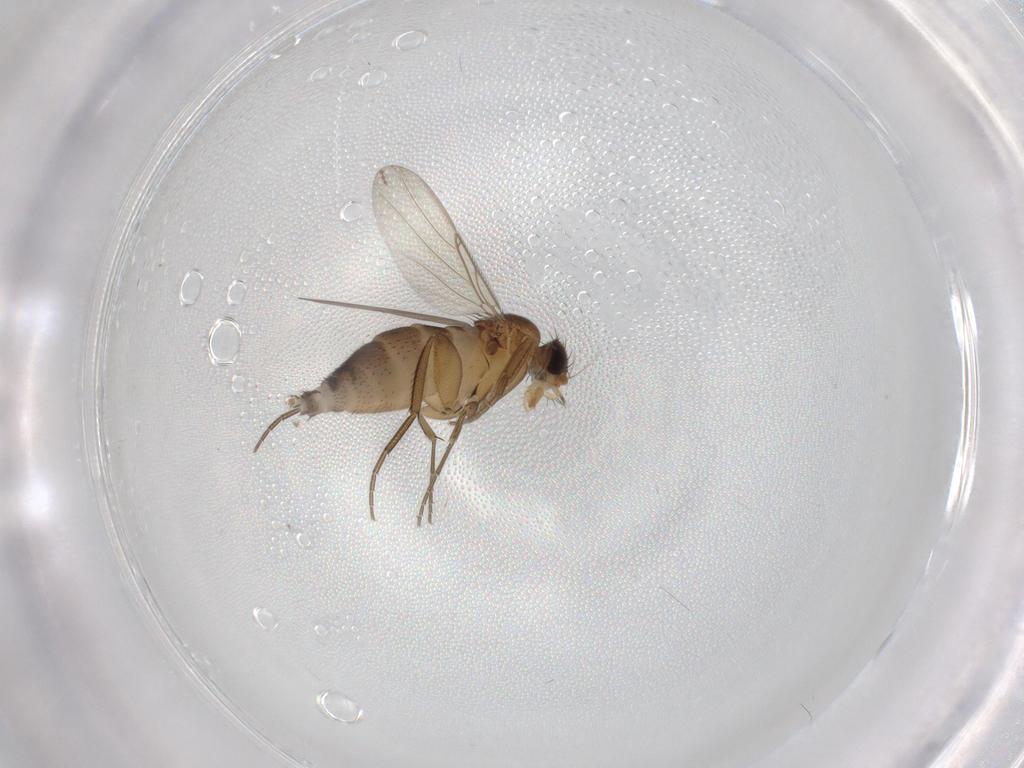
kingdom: Animalia
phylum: Arthropoda
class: Insecta
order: Diptera
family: Phoridae
